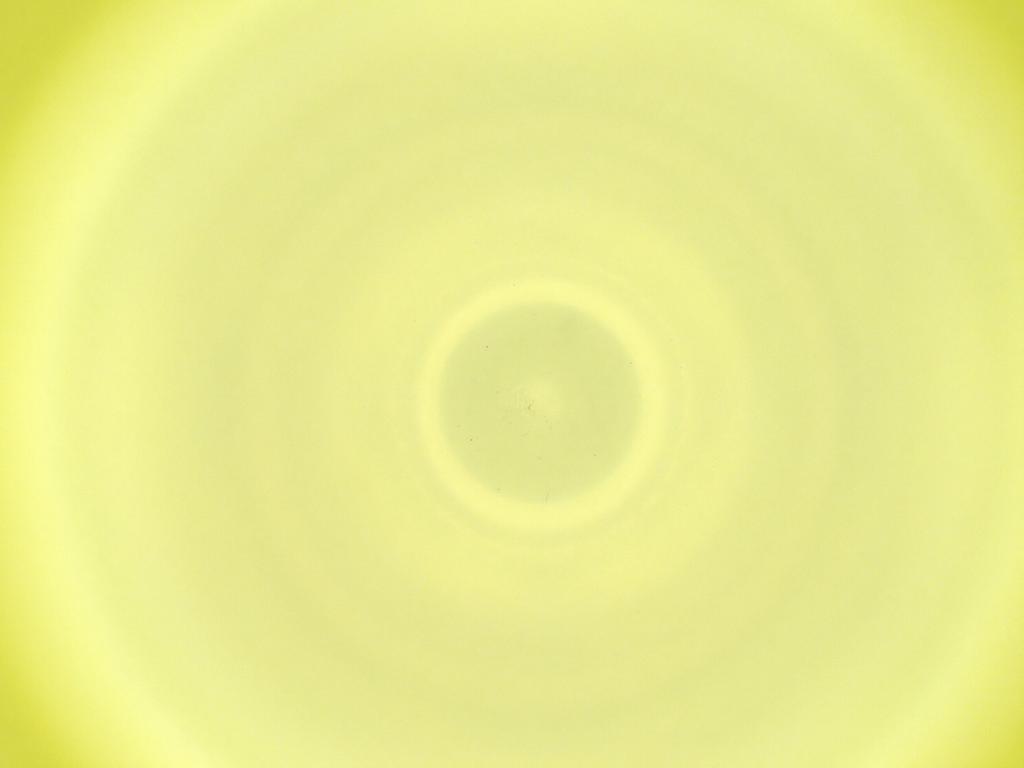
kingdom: Animalia
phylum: Arthropoda
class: Insecta
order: Diptera
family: Cecidomyiidae
